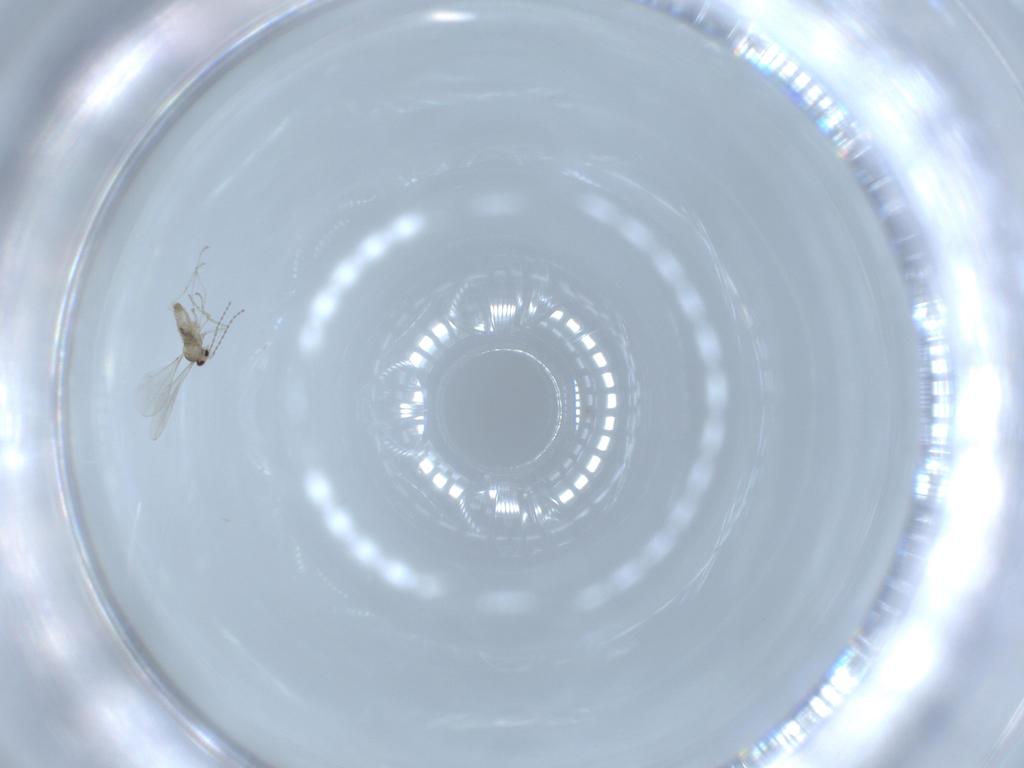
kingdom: Animalia
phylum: Arthropoda
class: Insecta
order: Diptera
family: Cecidomyiidae
